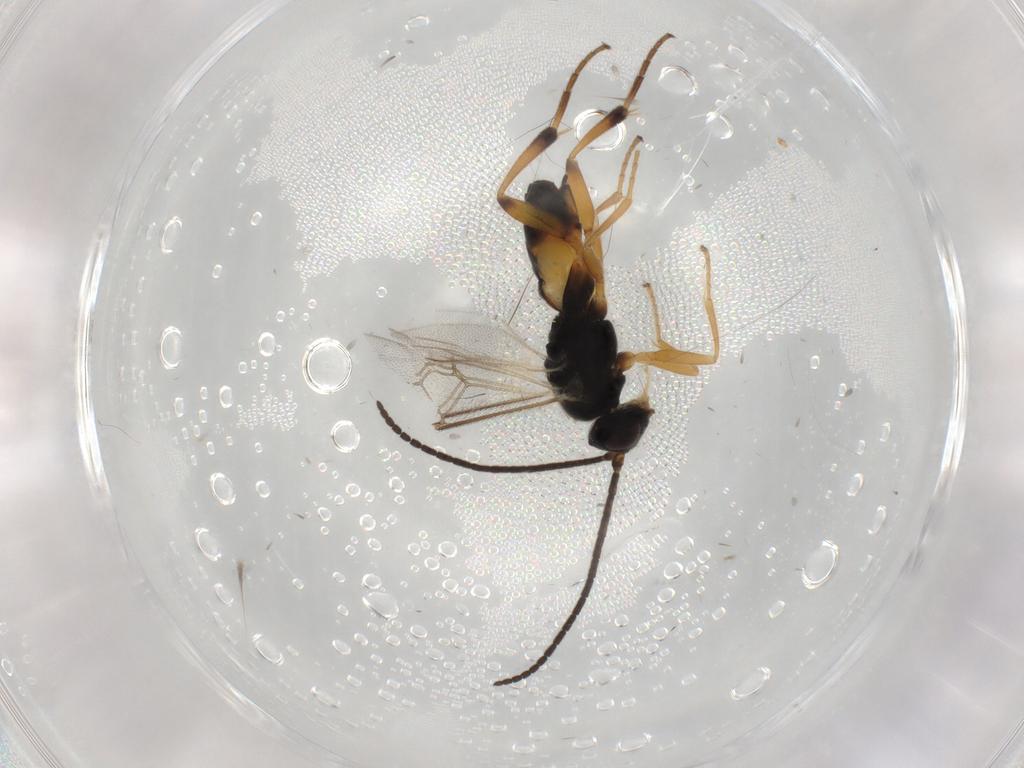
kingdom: Animalia
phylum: Arthropoda
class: Insecta
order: Hymenoptera
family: Braconidae
